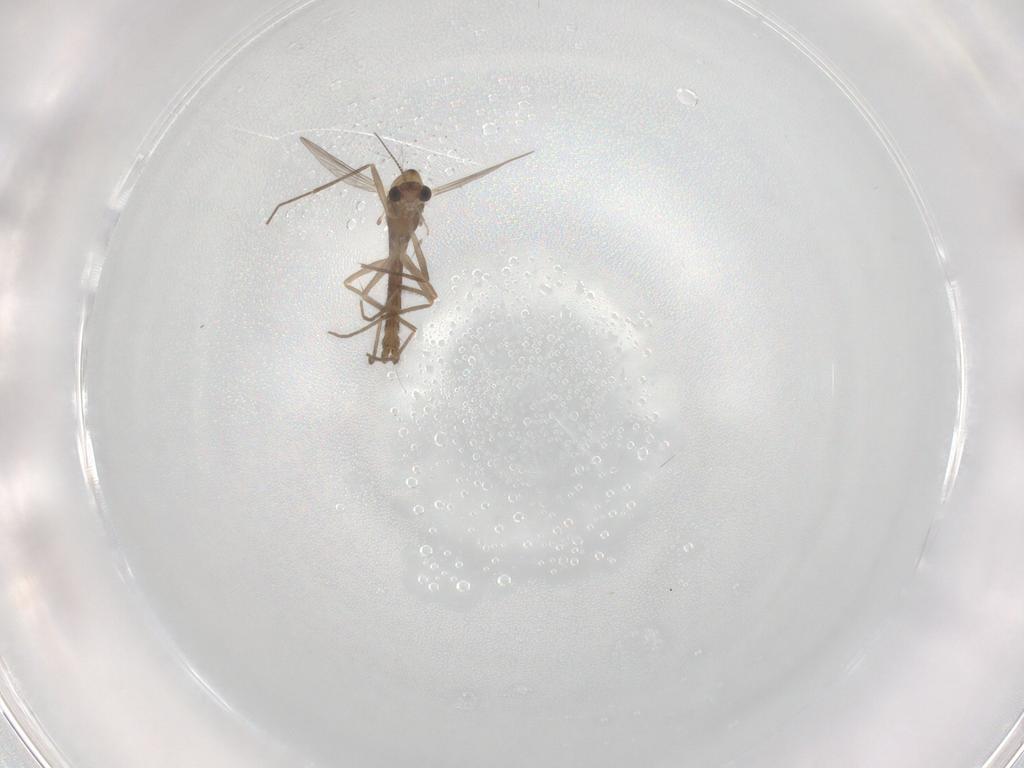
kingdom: Animalia
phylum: Arthropoda
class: Insecta
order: Diptera
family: Chironomidae
